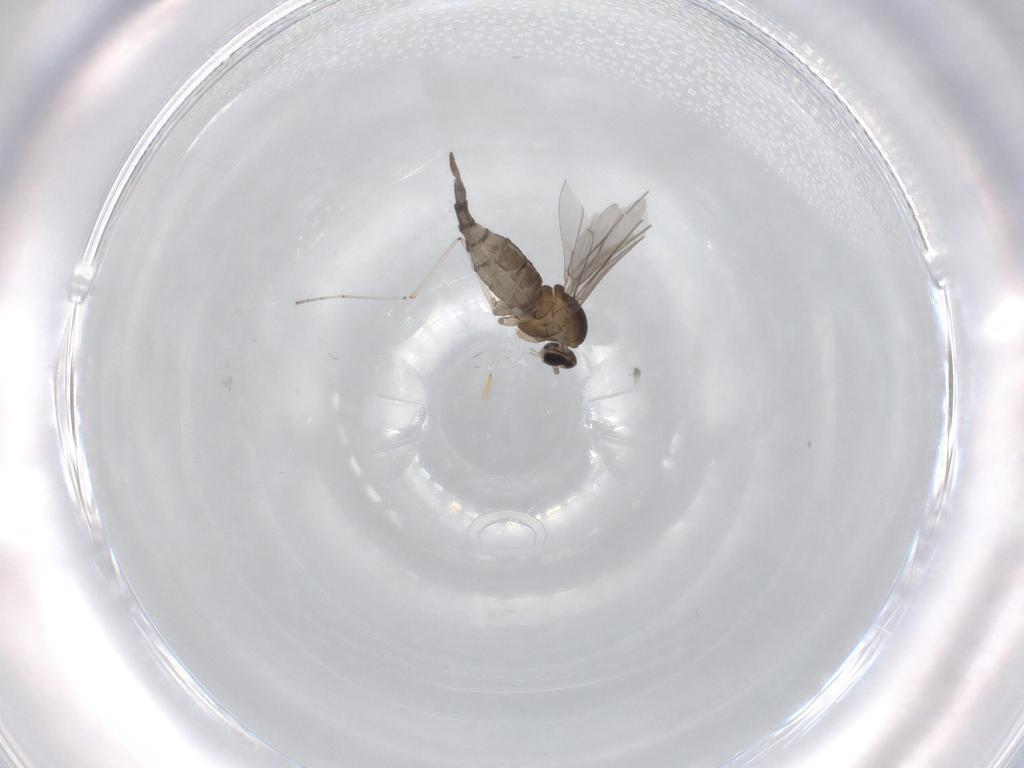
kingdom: Animalia
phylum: Arthropoda
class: Insecta
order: Diptera
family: Cecidomyiidae
